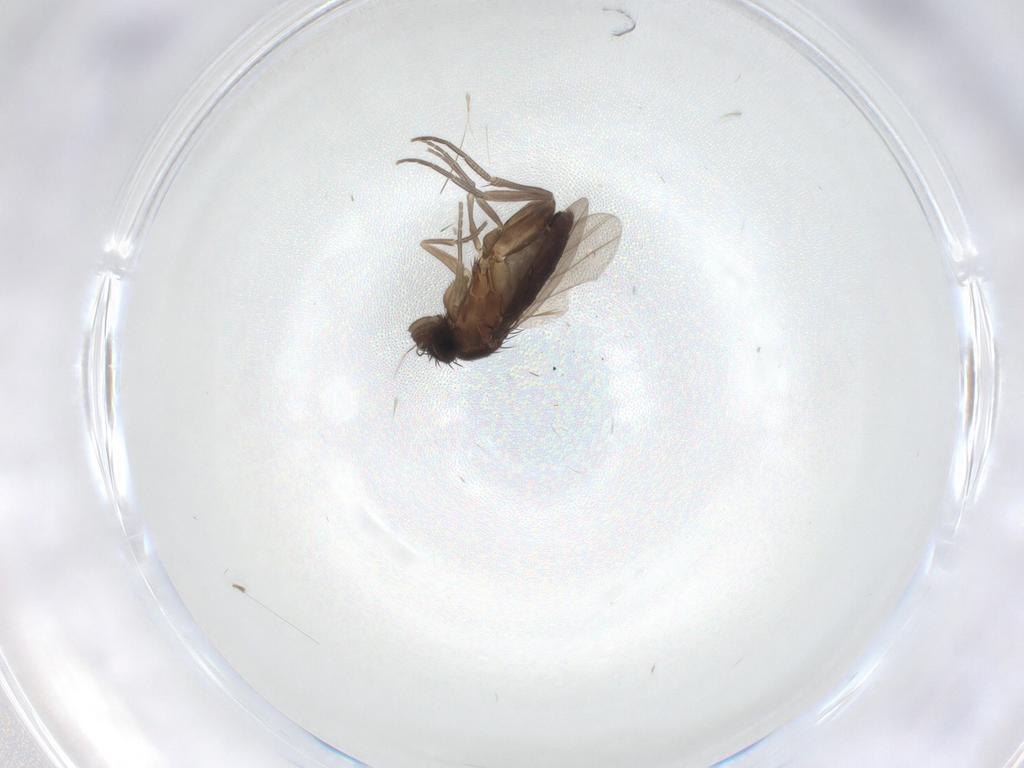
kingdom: Animalia
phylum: Arthropoda
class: Insecta
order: Diptera
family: Phoridae
